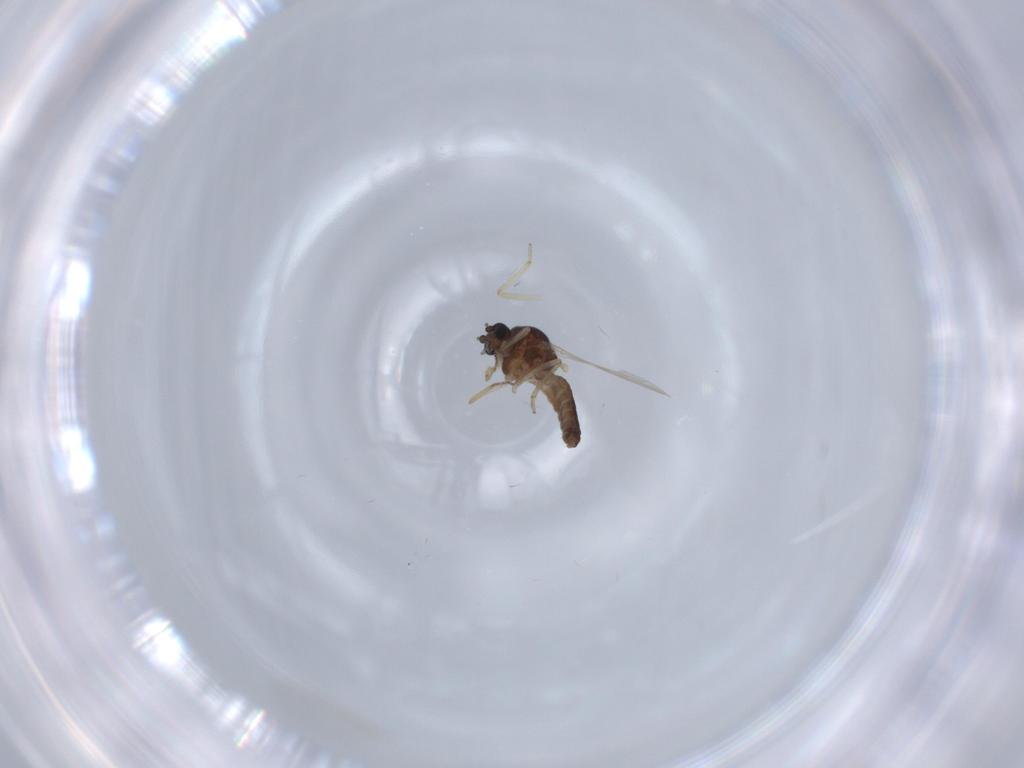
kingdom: Animalia
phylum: Arthropoda
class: Insecta
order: Diptera
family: Ceratopogonidae
